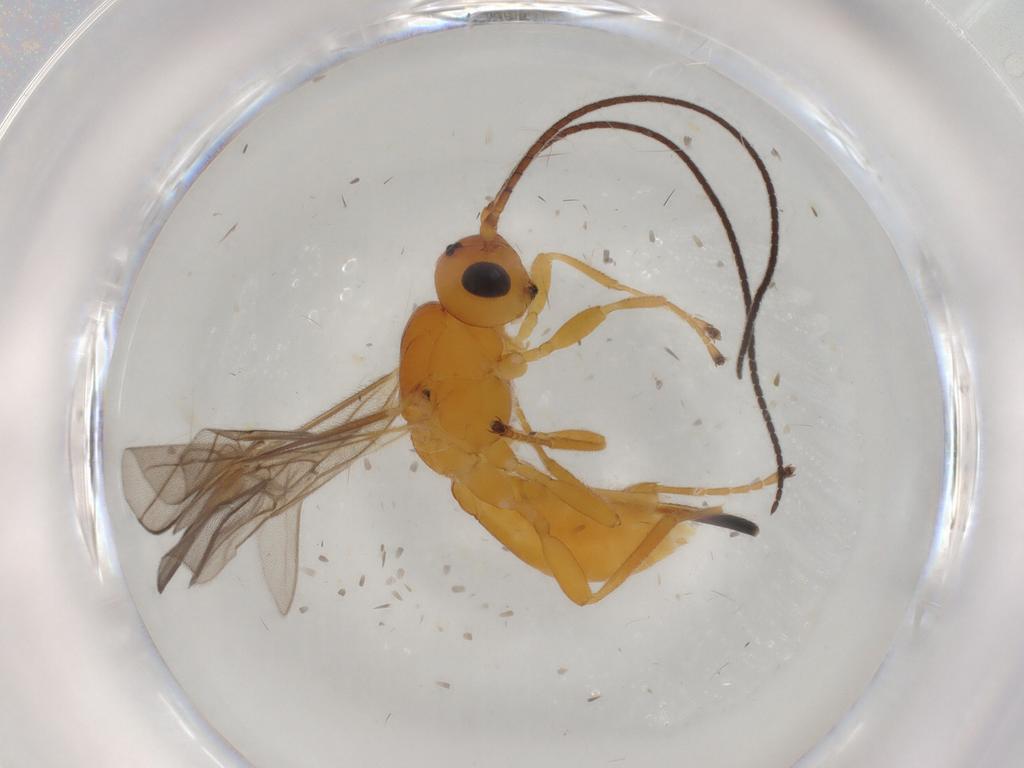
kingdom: Animalia
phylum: Arthropoda
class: Insecta
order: Hymenoptera
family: Braconidae
